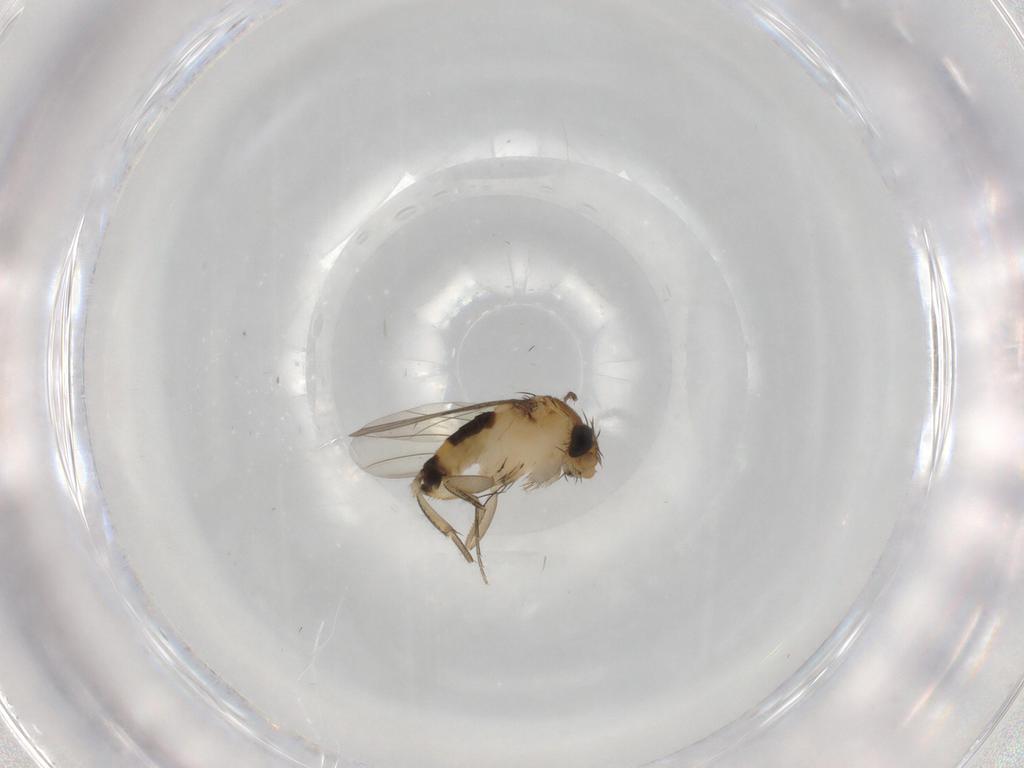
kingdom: Animalia
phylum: Arthropoda
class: Insecta
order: Diptera
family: Phoridae
